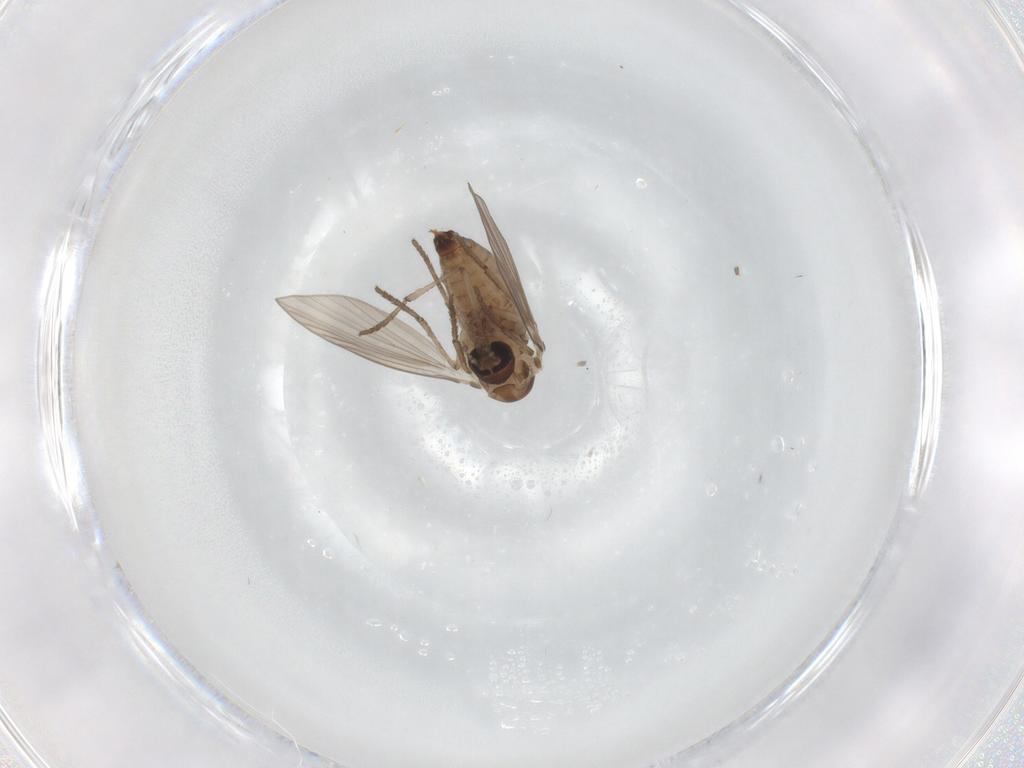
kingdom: Animalia
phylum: Arthropoda
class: Insecta
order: Diptera
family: Psychodidae
